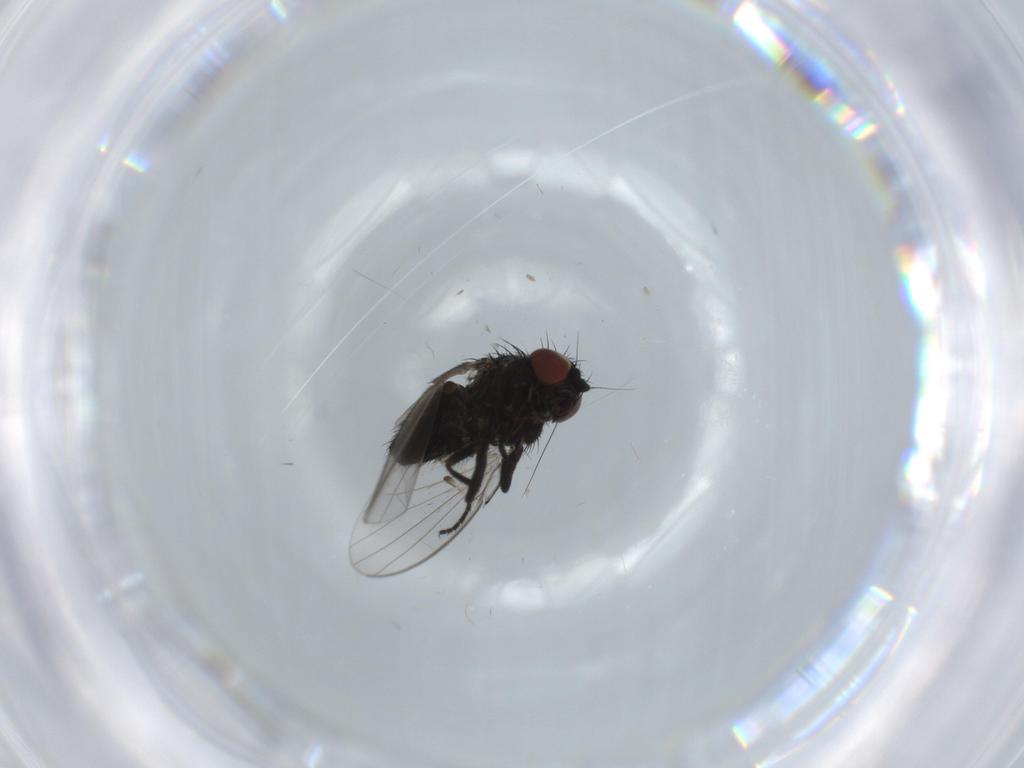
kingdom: Animalia
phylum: Arthropoda
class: Insecta
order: Diptera
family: Milichiidae
